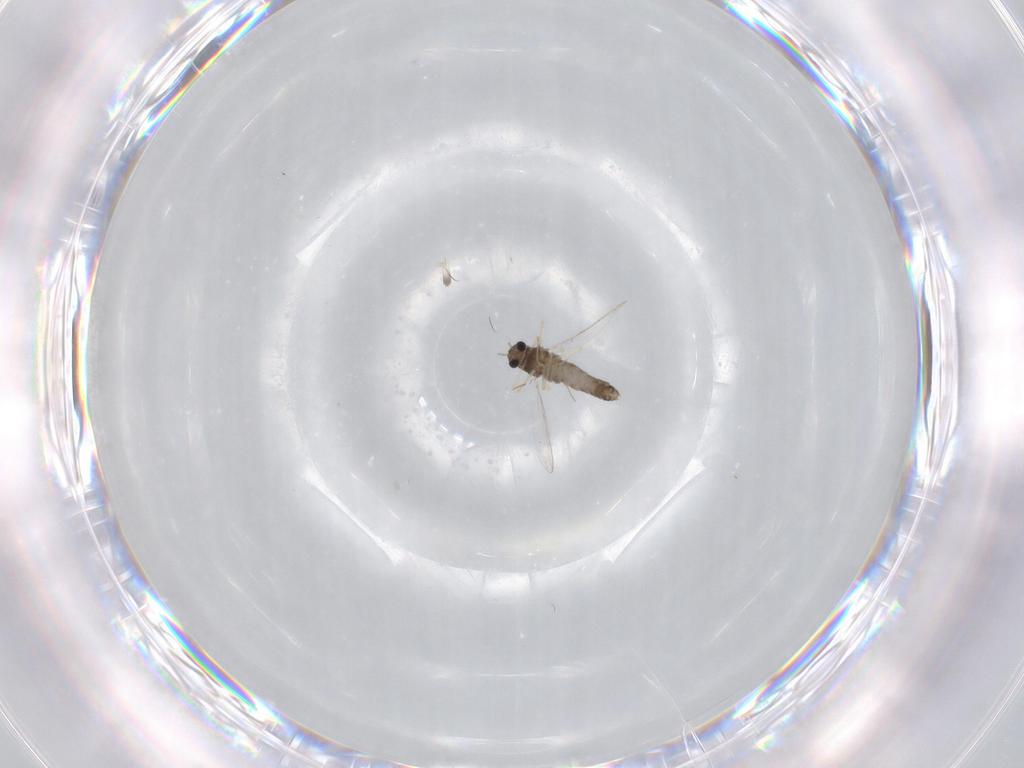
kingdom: Animalia
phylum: Arthropoda
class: Insecta
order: Diptera
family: Chironomidae
